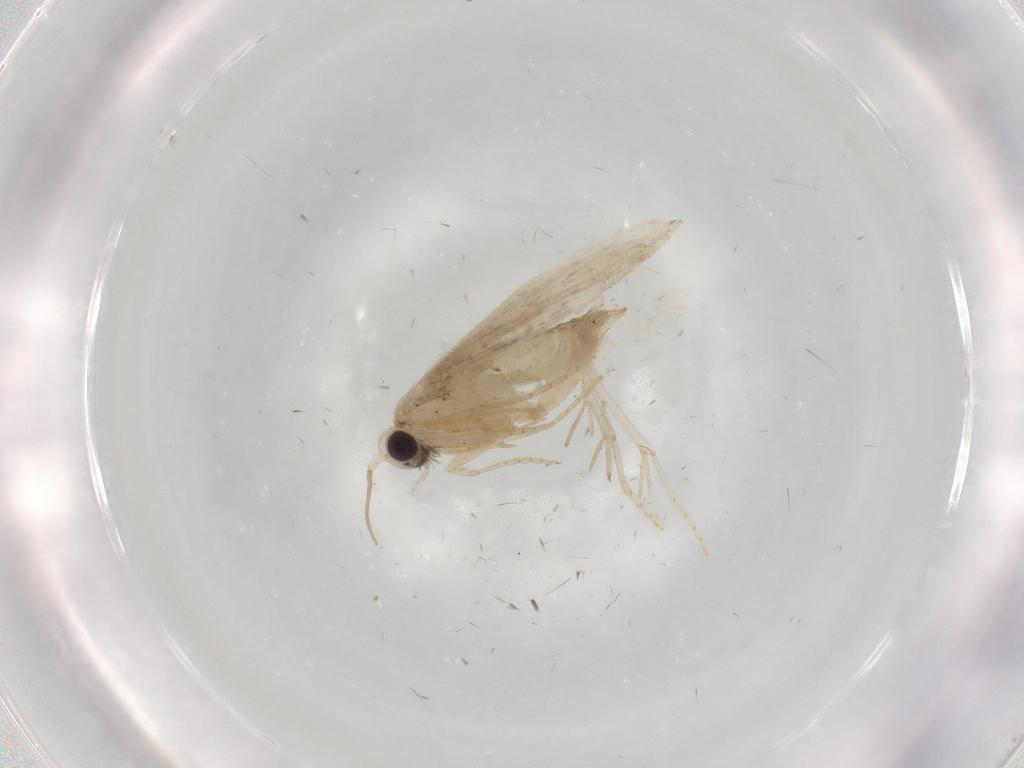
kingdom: Animalia
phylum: Arthropoda
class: Insecta
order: Lepidoptera
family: Psychidae
